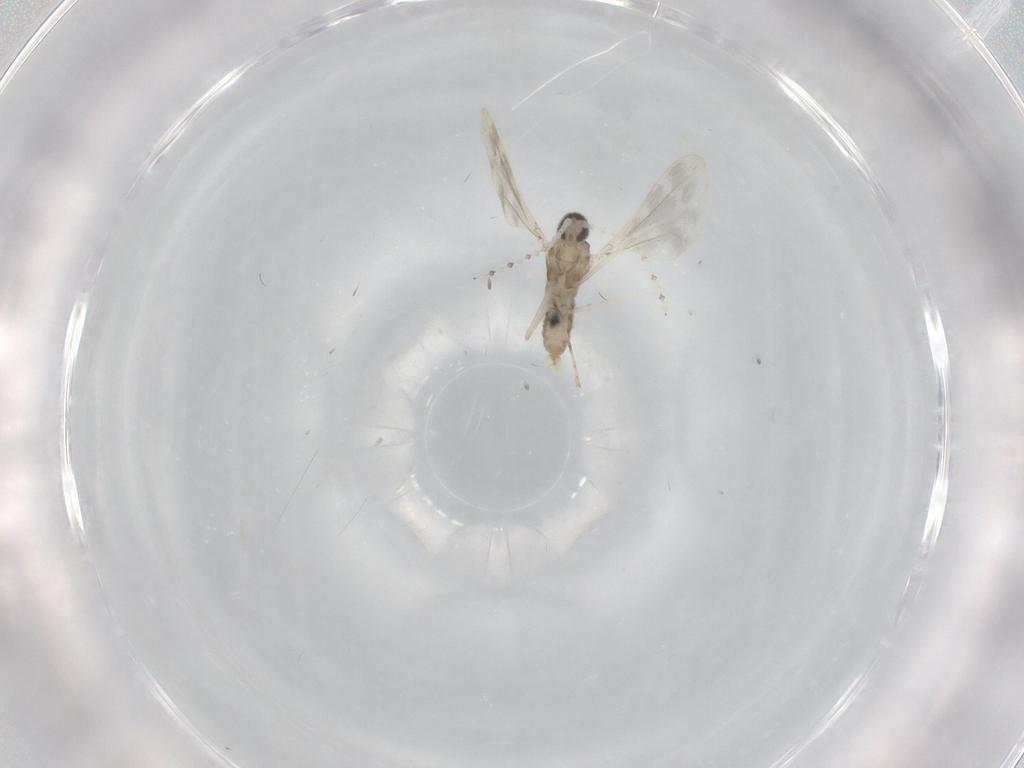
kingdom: Animalia
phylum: Arthropoda
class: Insecta
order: Diptera
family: Cecidomyiidae
